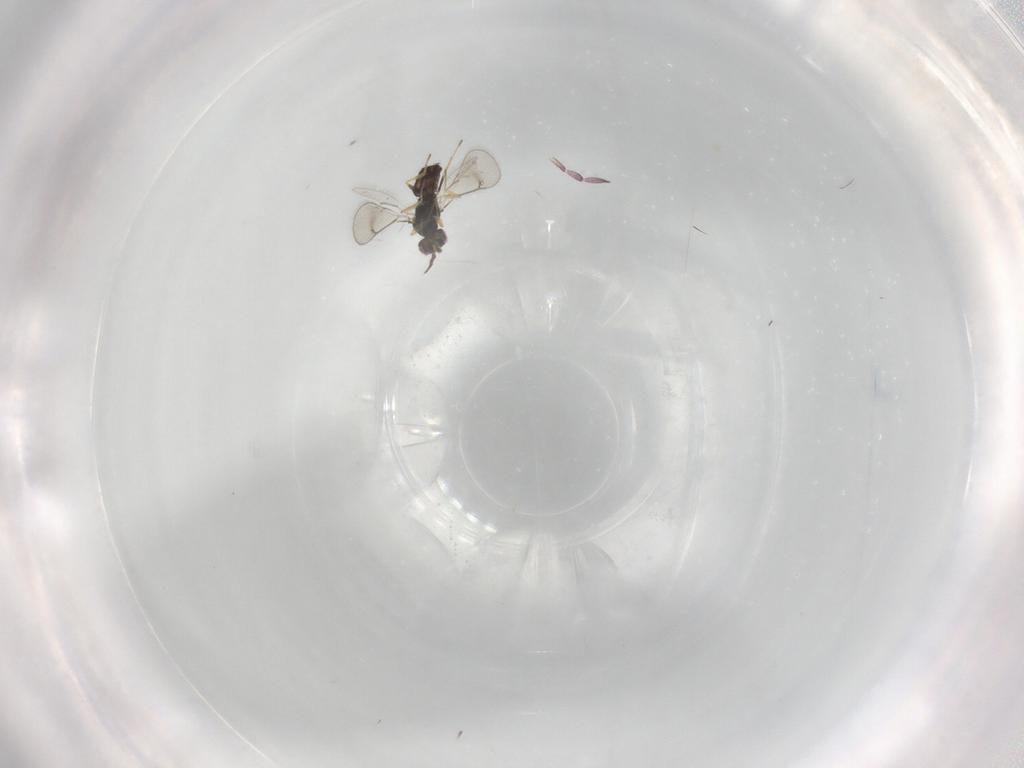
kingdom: Animalia
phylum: Arthropoda
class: Insecta
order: Hymenoptera
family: Eulophidae
